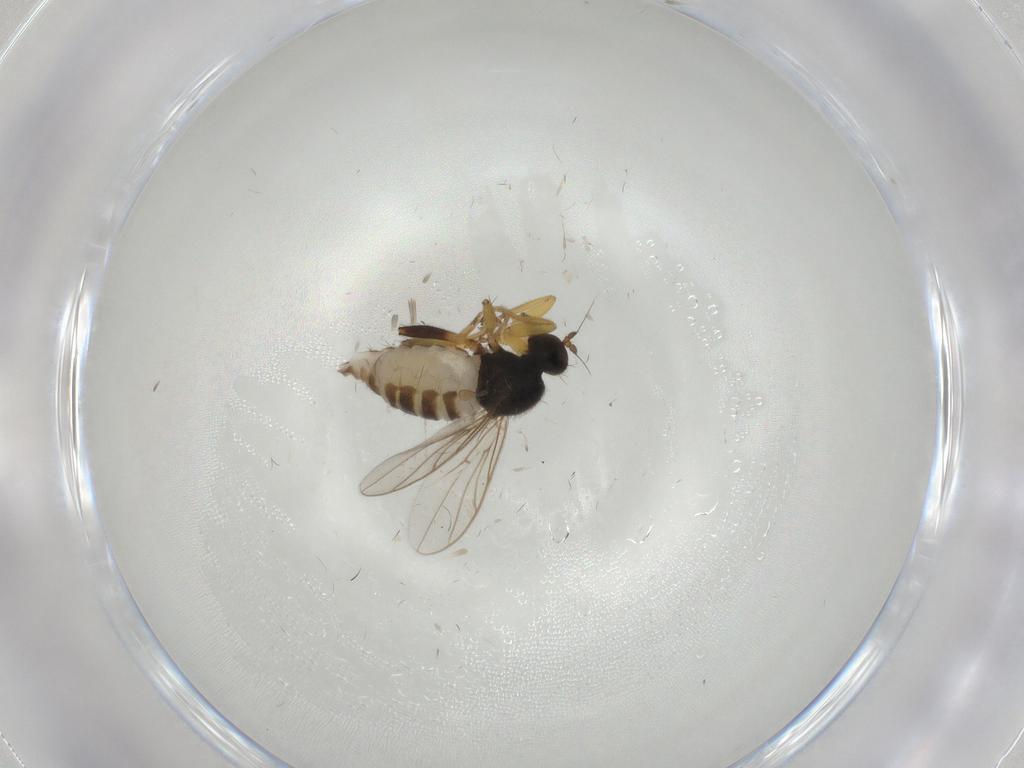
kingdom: Animalia
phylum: Arthropoda
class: Insecta
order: Diptera
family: Hybotidae
